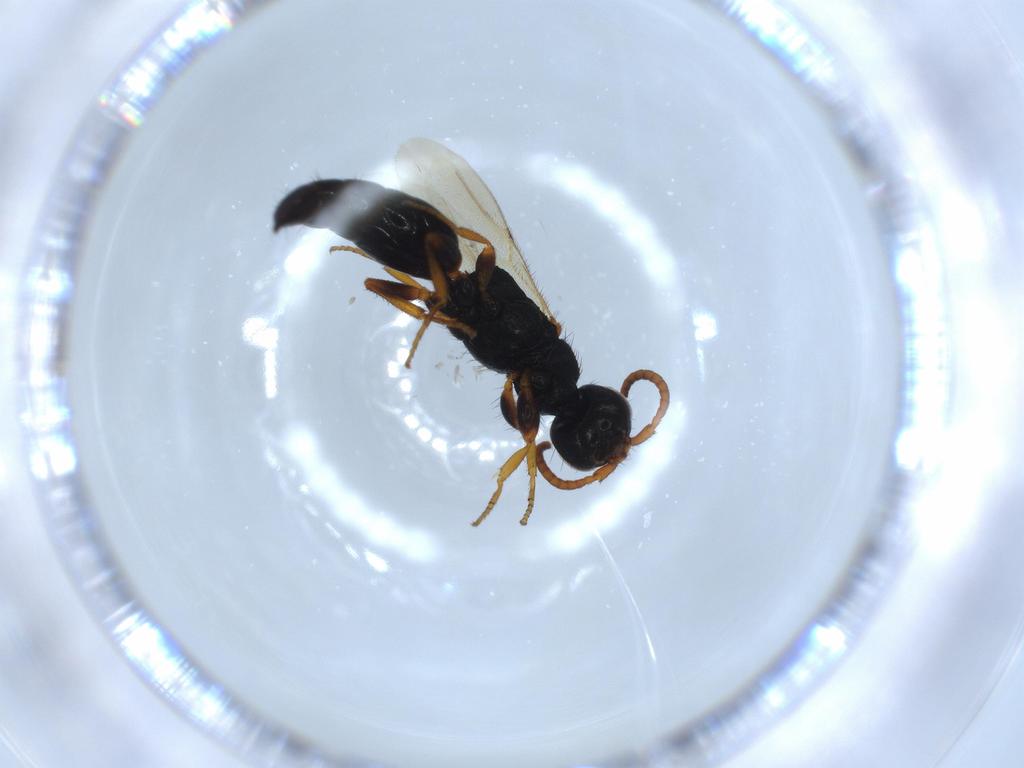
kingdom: Animalia
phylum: Arthropoda
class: Insecta
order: Hymenoptera
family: Bethylidae
